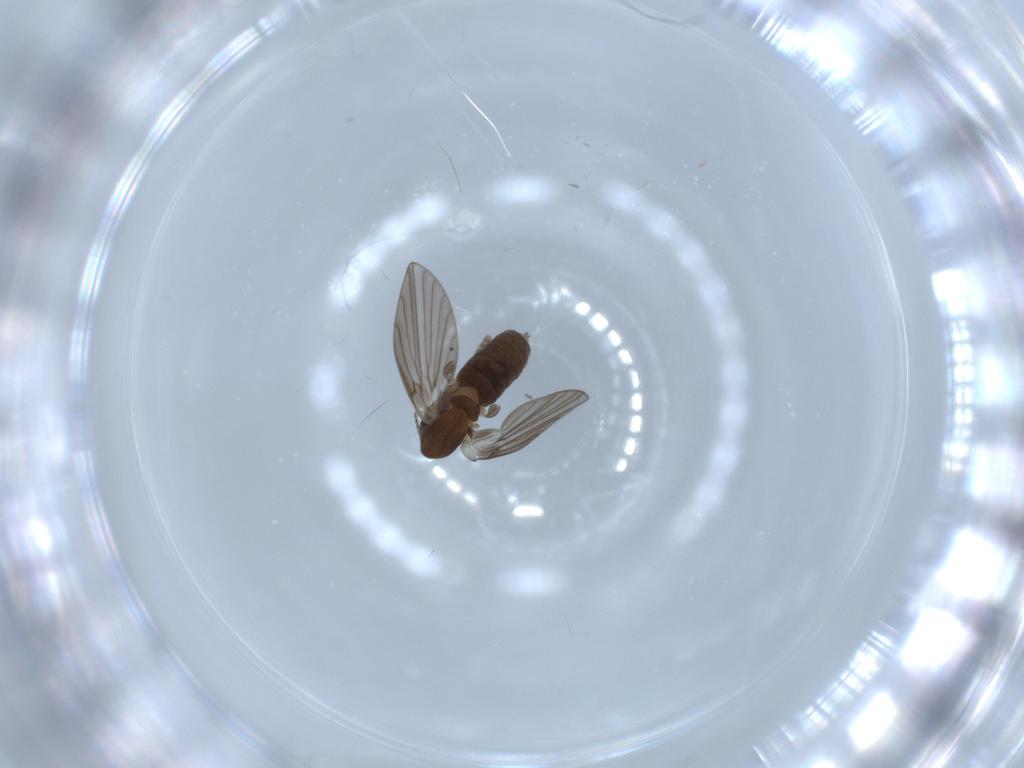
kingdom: Animalia
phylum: Arthropoda
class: Insecta
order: Diptera
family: Psychodidae
